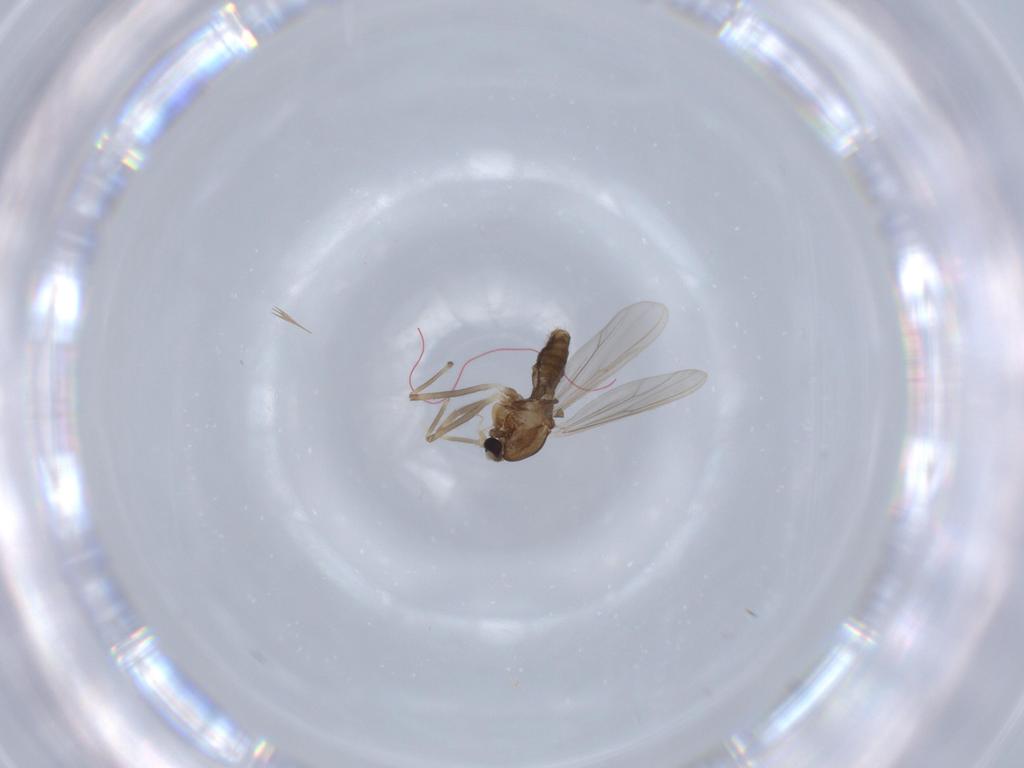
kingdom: Animalia
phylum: Arthropoda
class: Insecta
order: Diptera
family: Chironomidae
